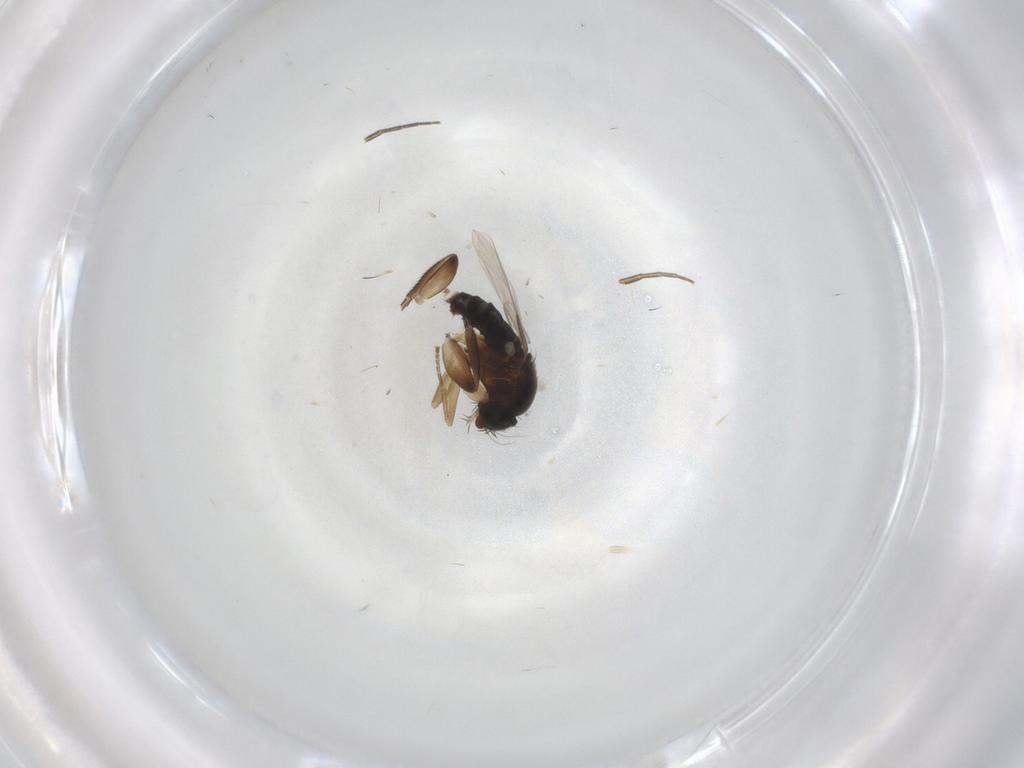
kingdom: Animalia
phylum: Arthropoda
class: Insecta
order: Diptera
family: Phoridae
